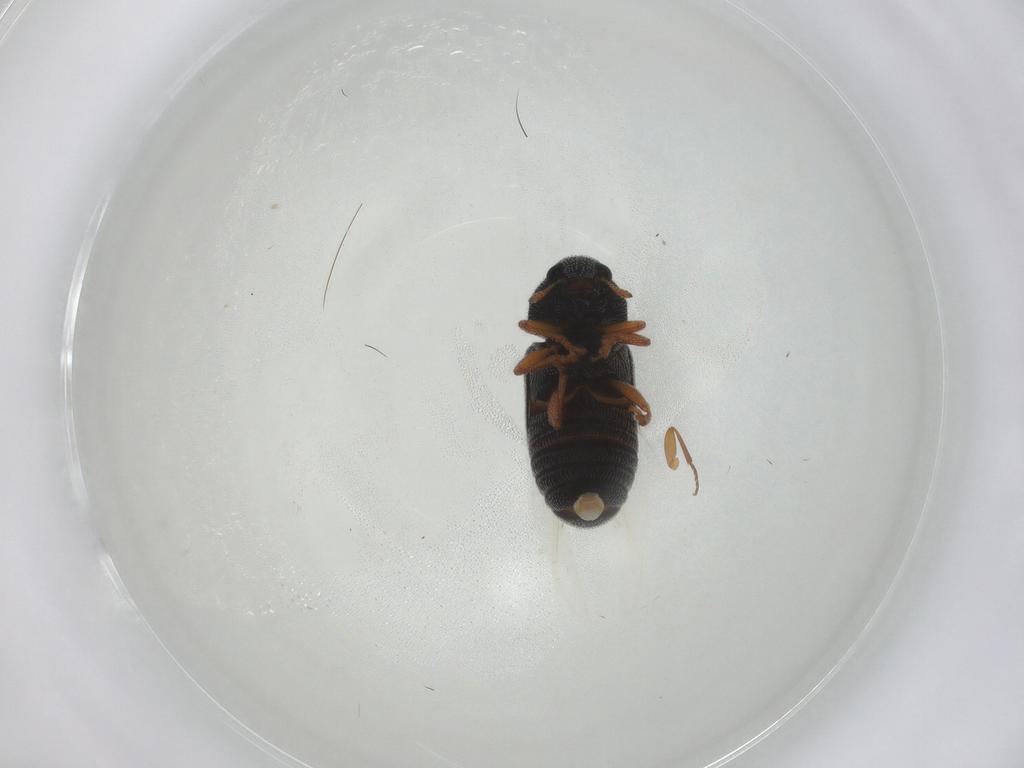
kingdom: Animalia
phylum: Arthropoda
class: Insecta
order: Coleoptera
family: Anthribidae
